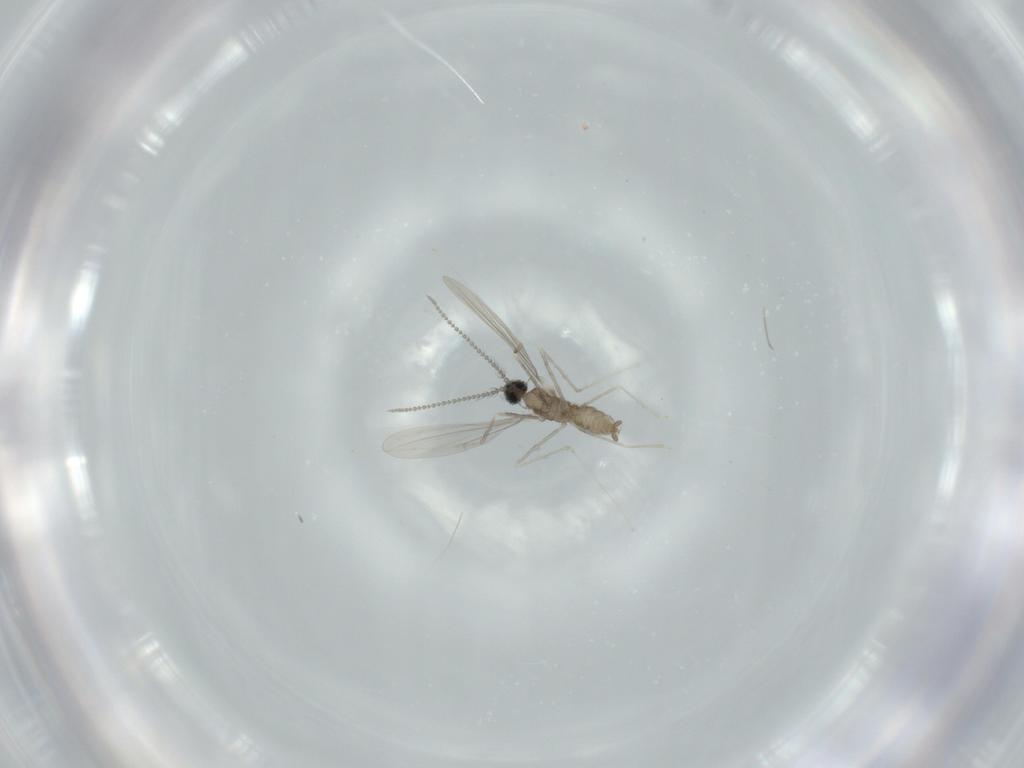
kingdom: Animalia
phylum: Arthropoda
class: Insecta
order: Diptera
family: Cecidomyiidae
